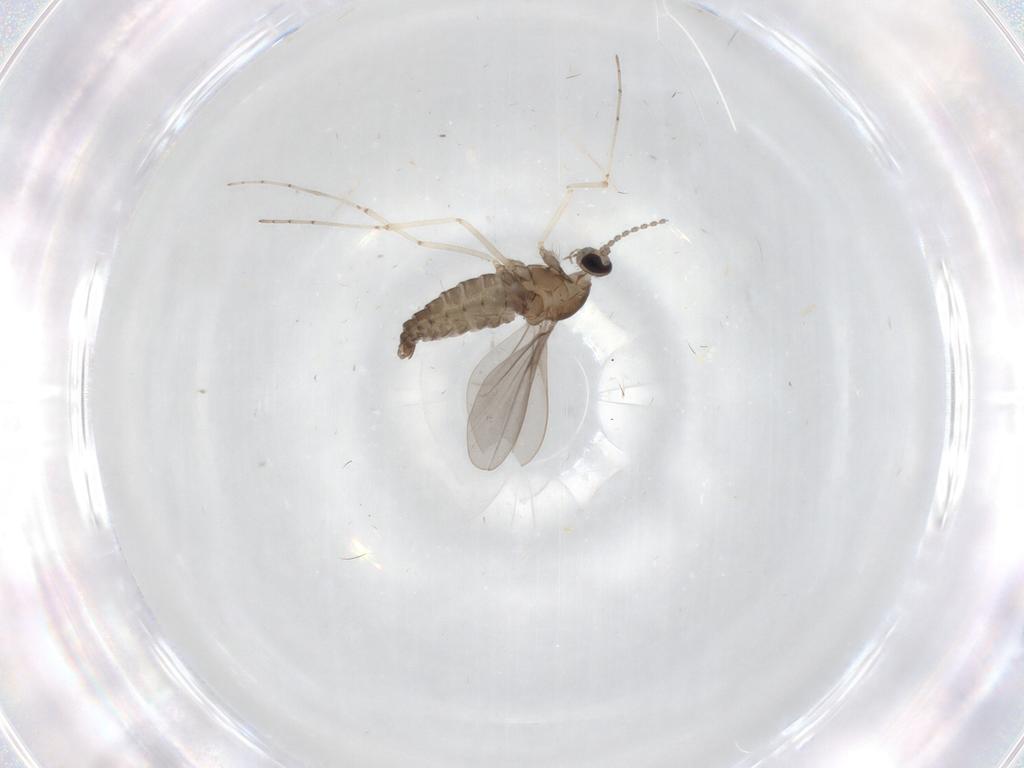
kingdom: Animalia
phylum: Arthropoda
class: Insecta
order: Diptera
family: Cecidomyiidae
